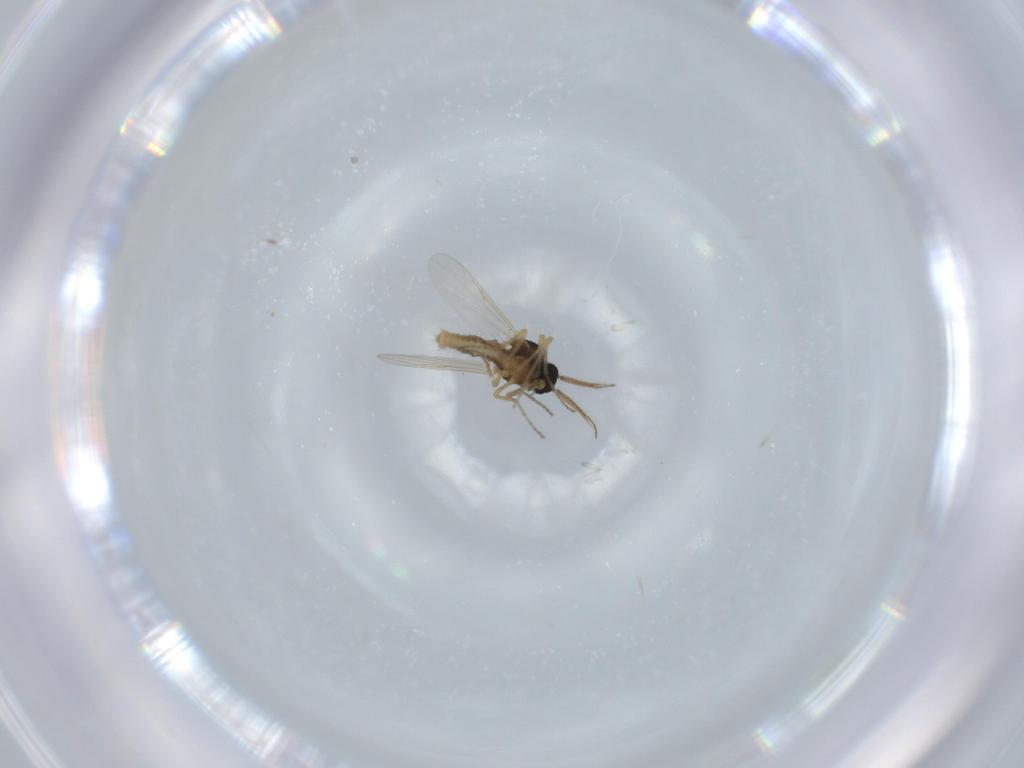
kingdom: Animalia
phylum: Arthropoda
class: Insecta
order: Diptera
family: Ceratopogonidae
